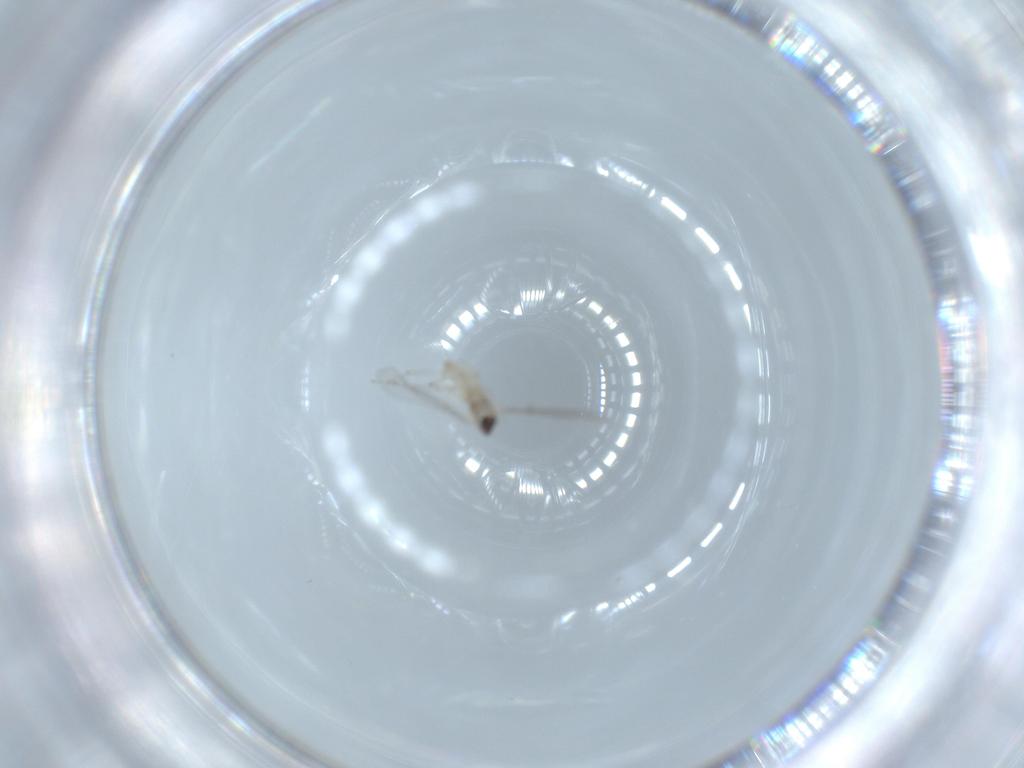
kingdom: Animalia
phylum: Arthropoda
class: Insecta
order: Diptera
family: Cecidomyiidae
